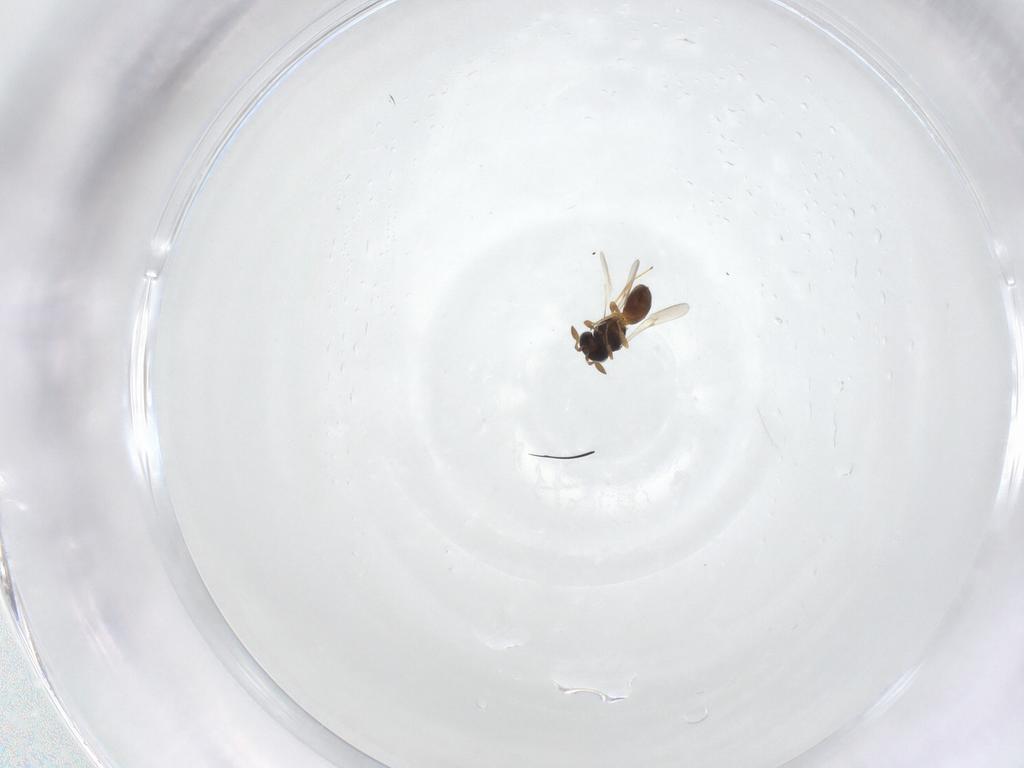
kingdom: Animalia
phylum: Arthropoda
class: Insecta
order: Hymenoptera
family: Scelionidae
